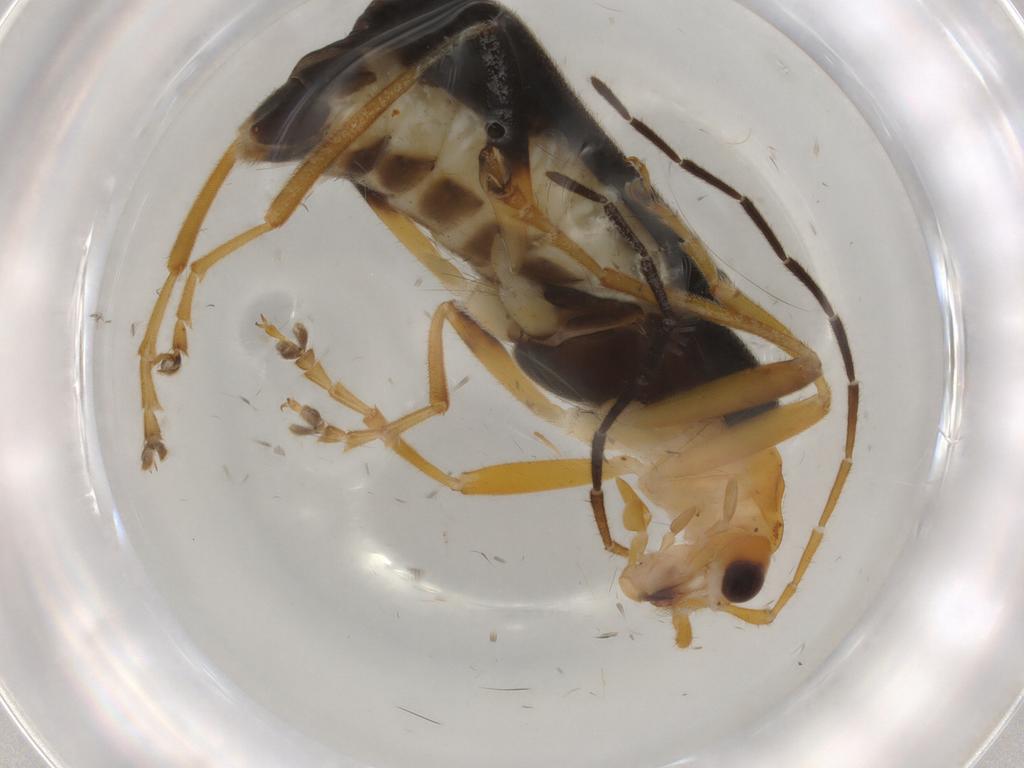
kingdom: Animalia
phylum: Arthropoda
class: Insecta
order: Coleoptera
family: Cantharidae
